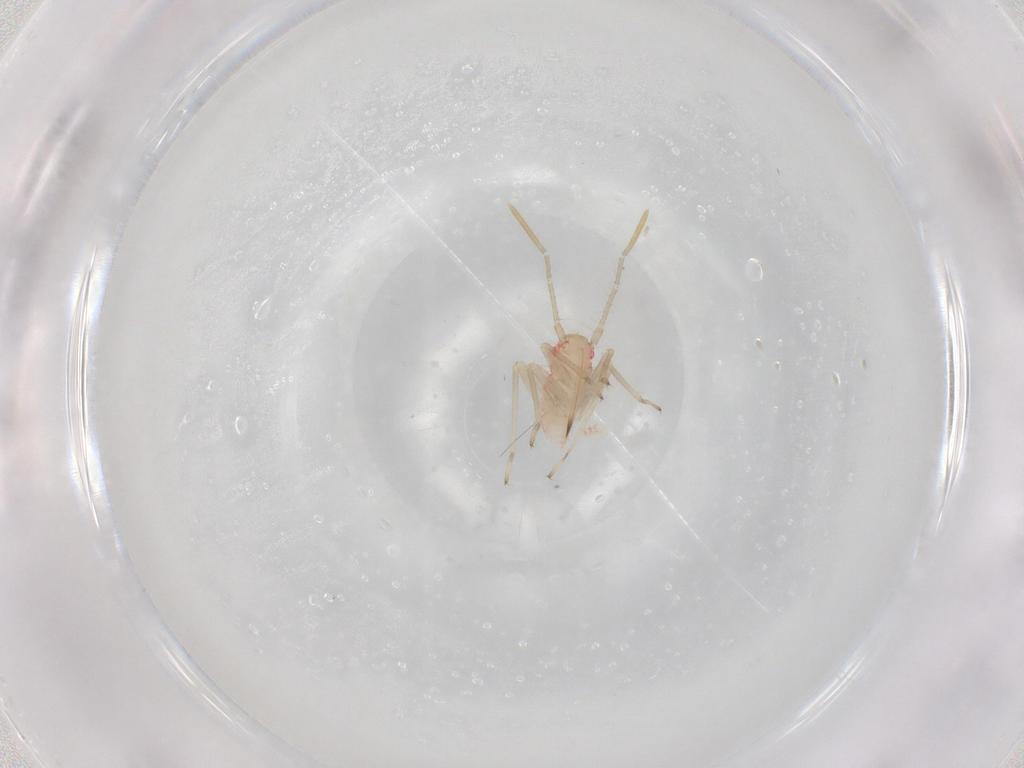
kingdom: Animalia
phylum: Arthropoda
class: Insecta
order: Hemiptera
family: Miridae
